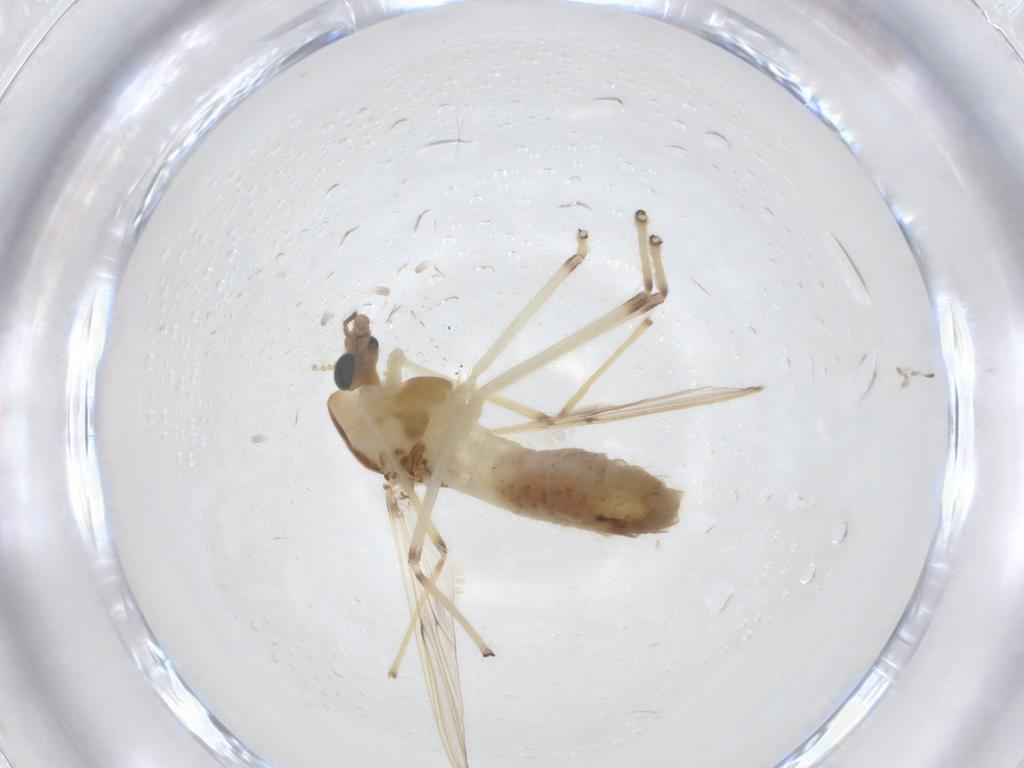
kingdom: Animalia
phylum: Arthropoda
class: Insecta
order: Diptera
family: Chironomidae
